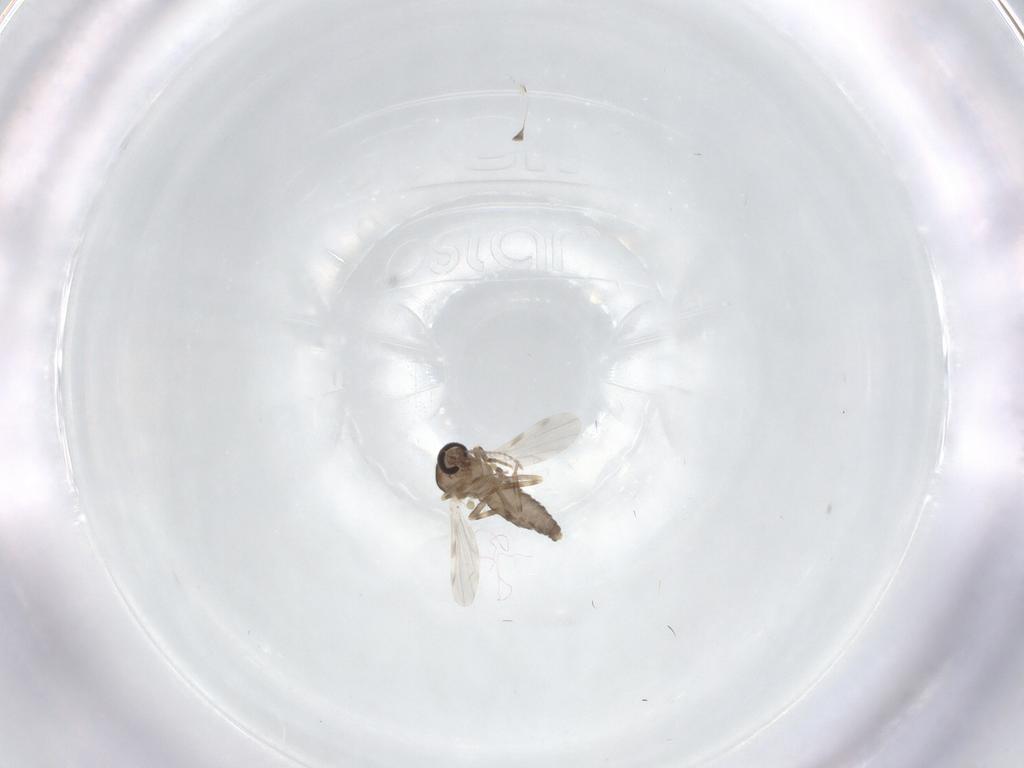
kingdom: Animalia
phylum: Arthropoda
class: Insecta
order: Diptera
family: Ceratopogonidae
